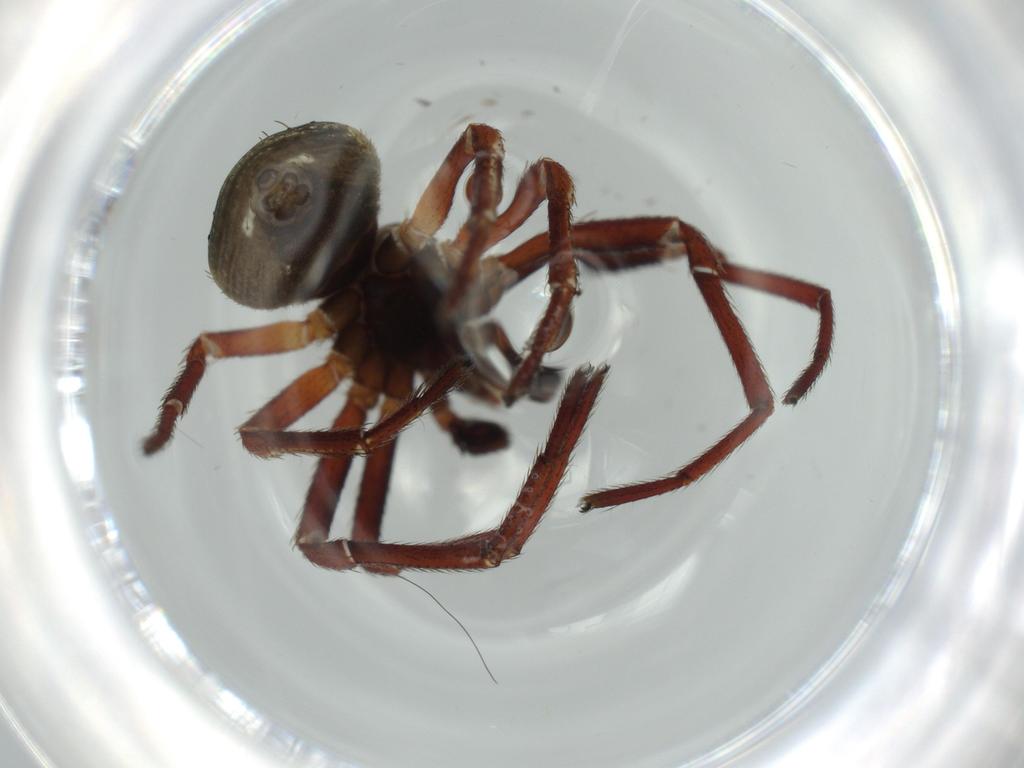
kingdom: Animalia
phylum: Arthropoda
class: Arachnida
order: Araneae
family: Thomisidae
